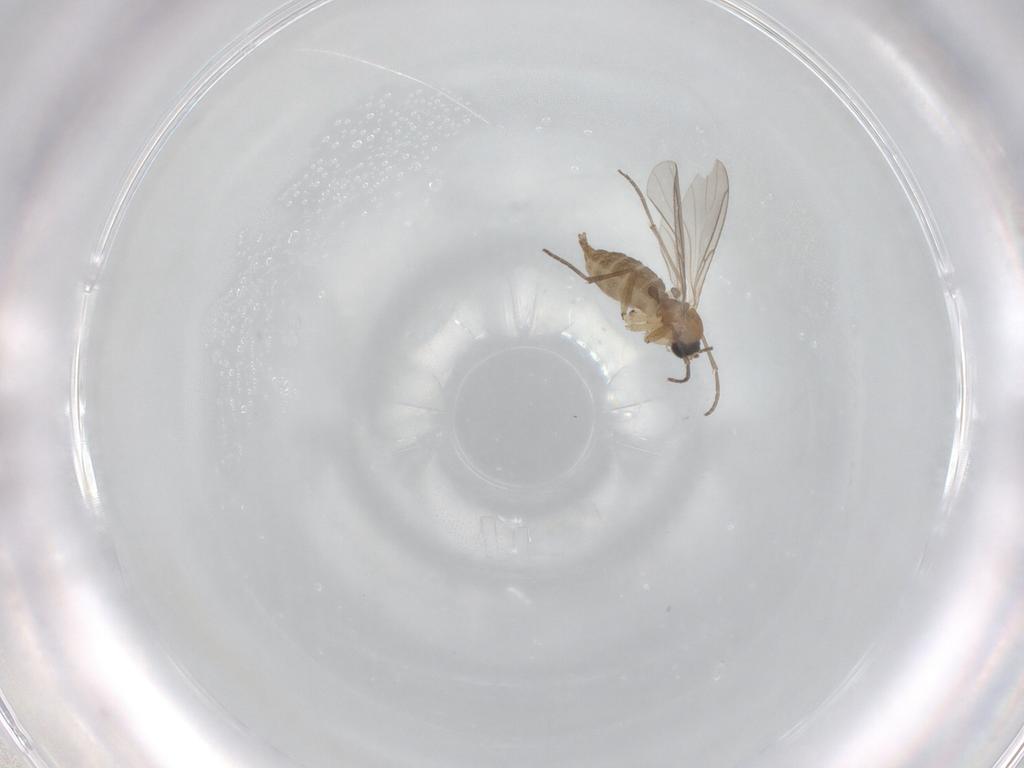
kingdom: Animalia
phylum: Arthropoda
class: Insecta
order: Diptera
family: Sciaridae
